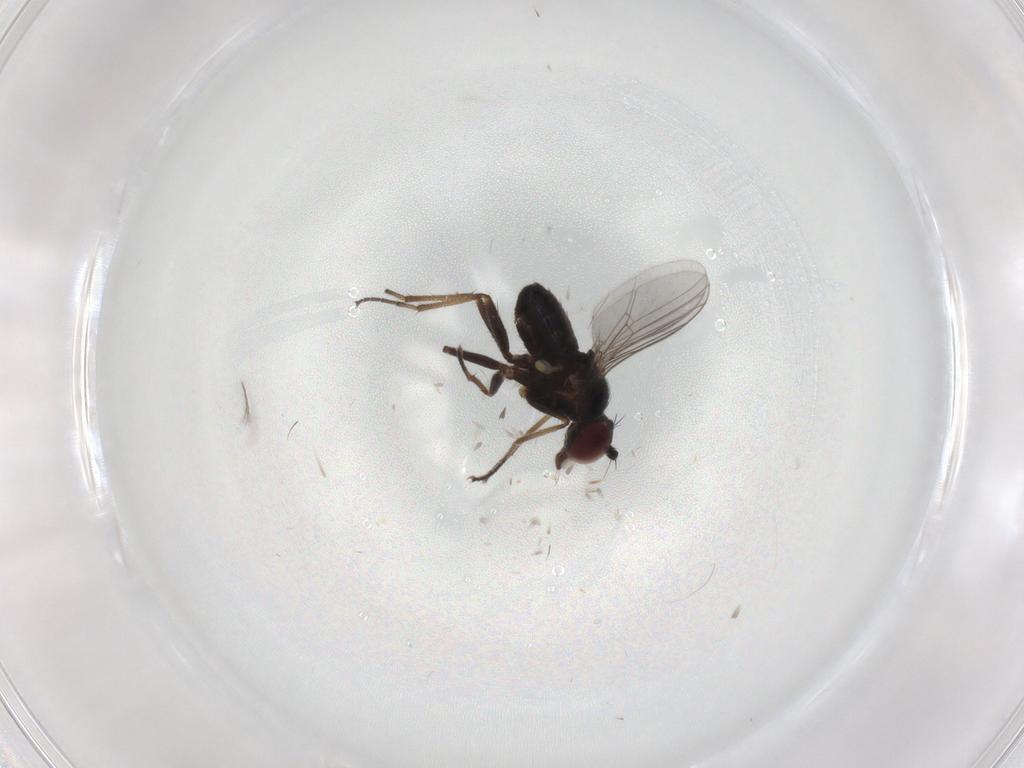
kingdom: Animalia
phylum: Arthropoda
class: Insecta
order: Diptera
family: Dolichopodidae
